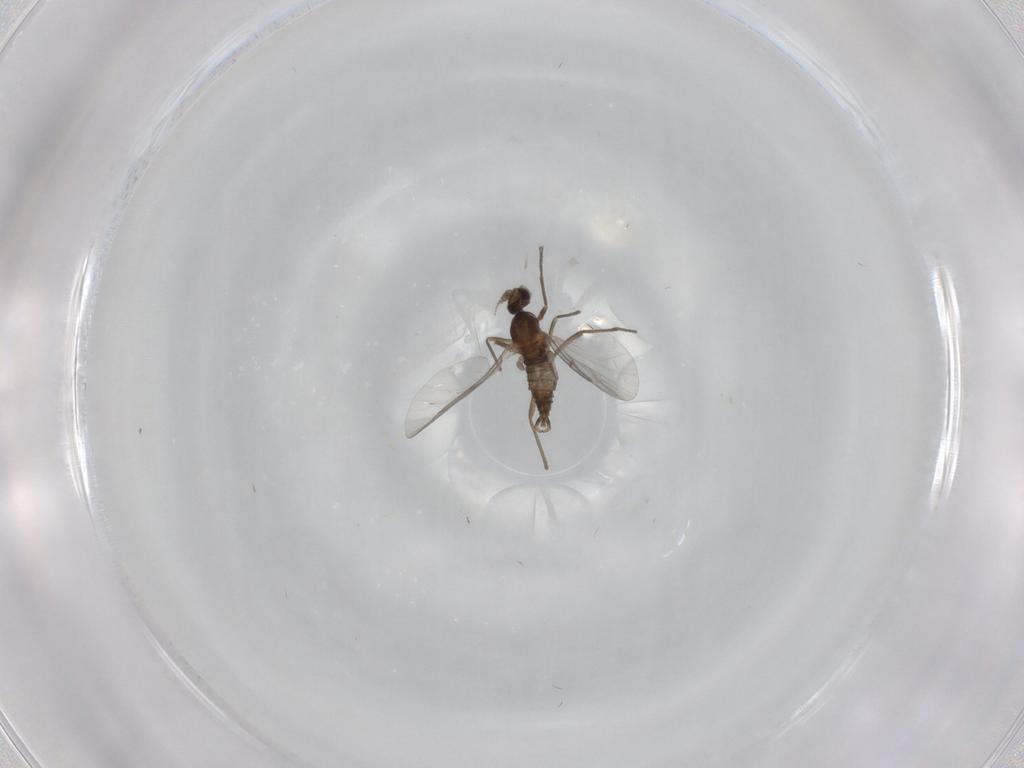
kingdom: Animalia
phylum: Arthropoda
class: Insecta
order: Diptera
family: Cecidomyiidae
